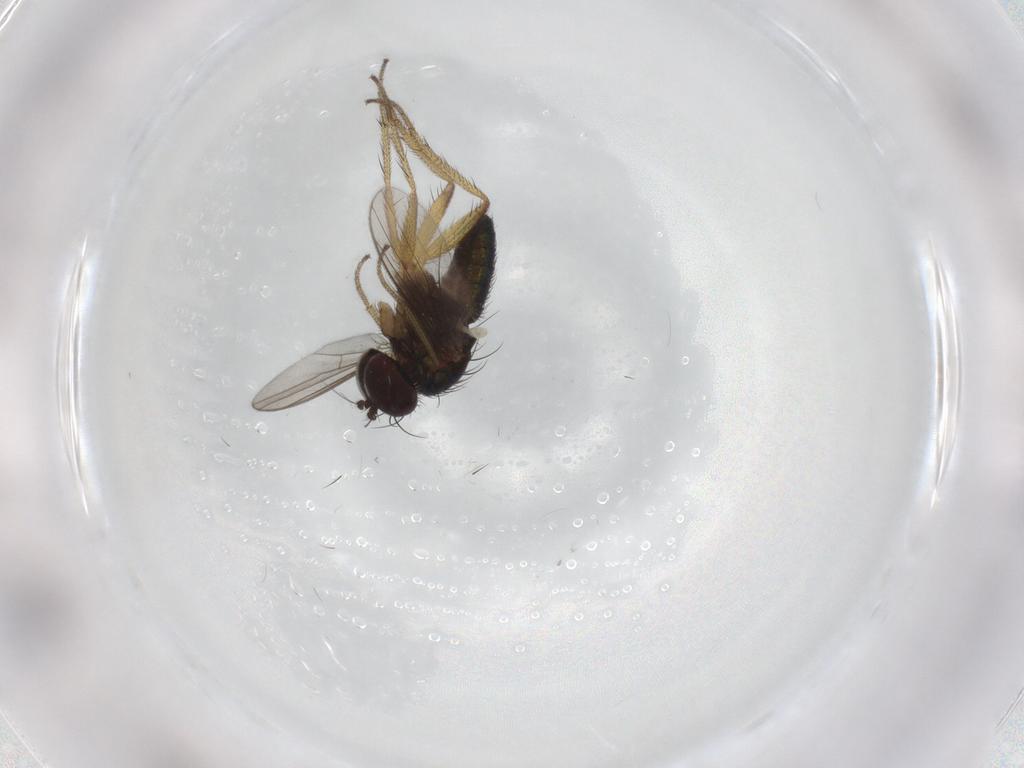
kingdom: Animalia
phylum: Arthropoda
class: Insecta
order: Diptera
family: Dolichopodidae
